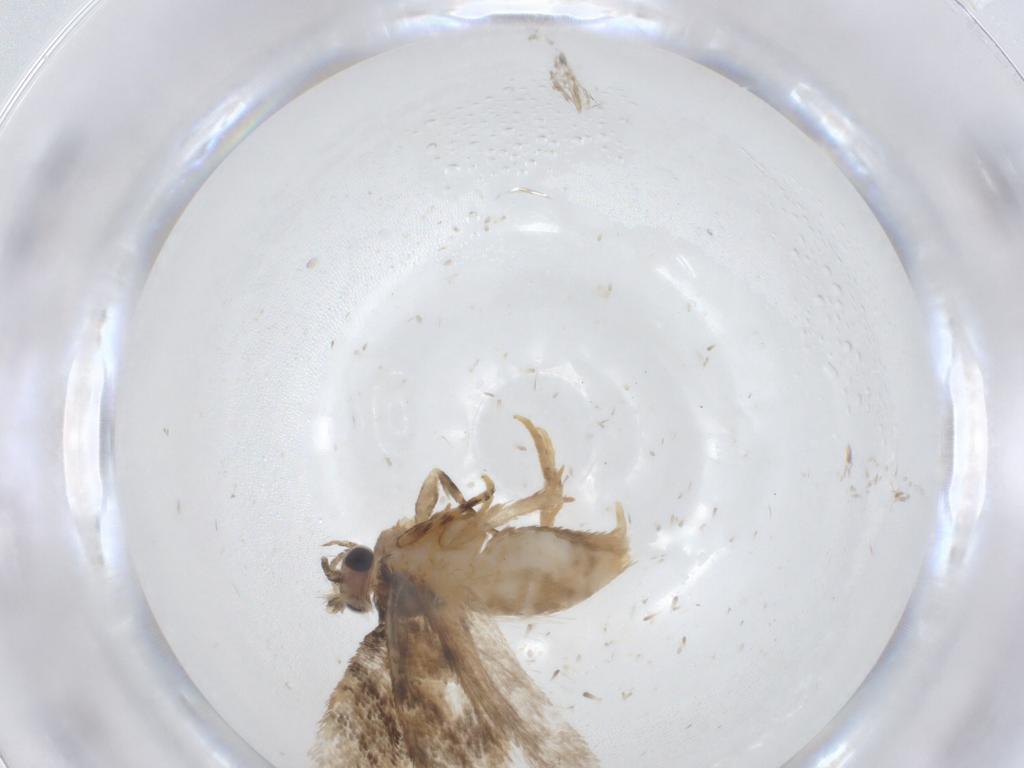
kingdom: Animalia
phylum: Arthropoda
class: Insecta
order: Lepidoptera
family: Tineidae
